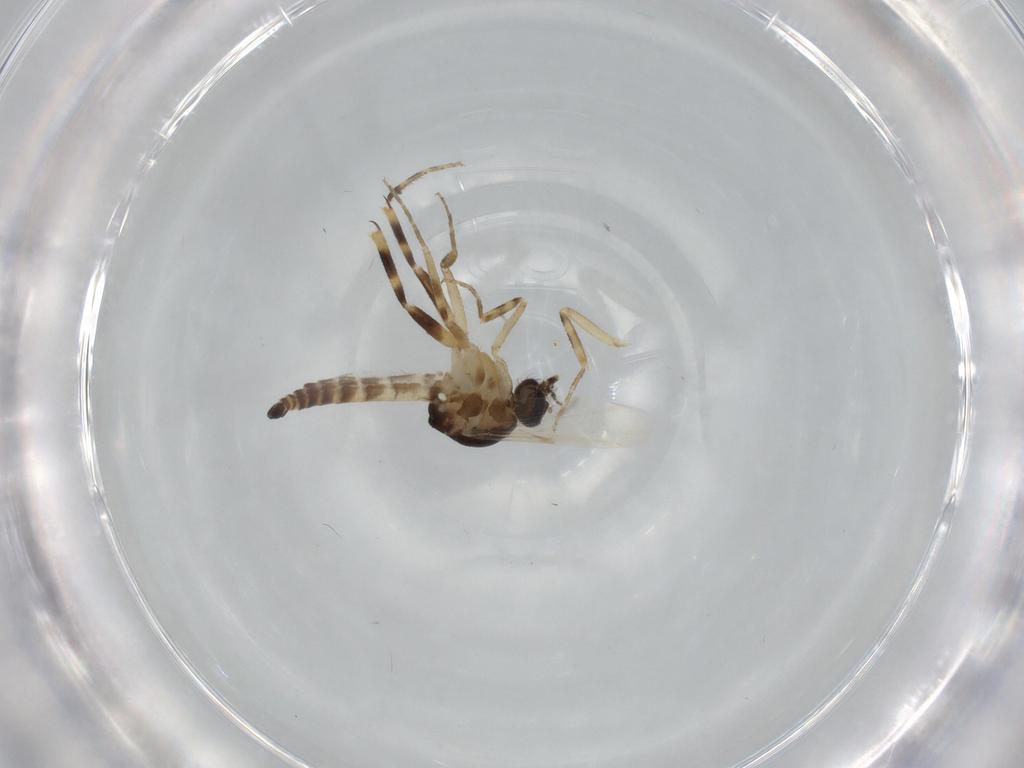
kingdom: Animalia
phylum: Arthropoda
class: Insecta
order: Diptera
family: Ceratopogonidae
